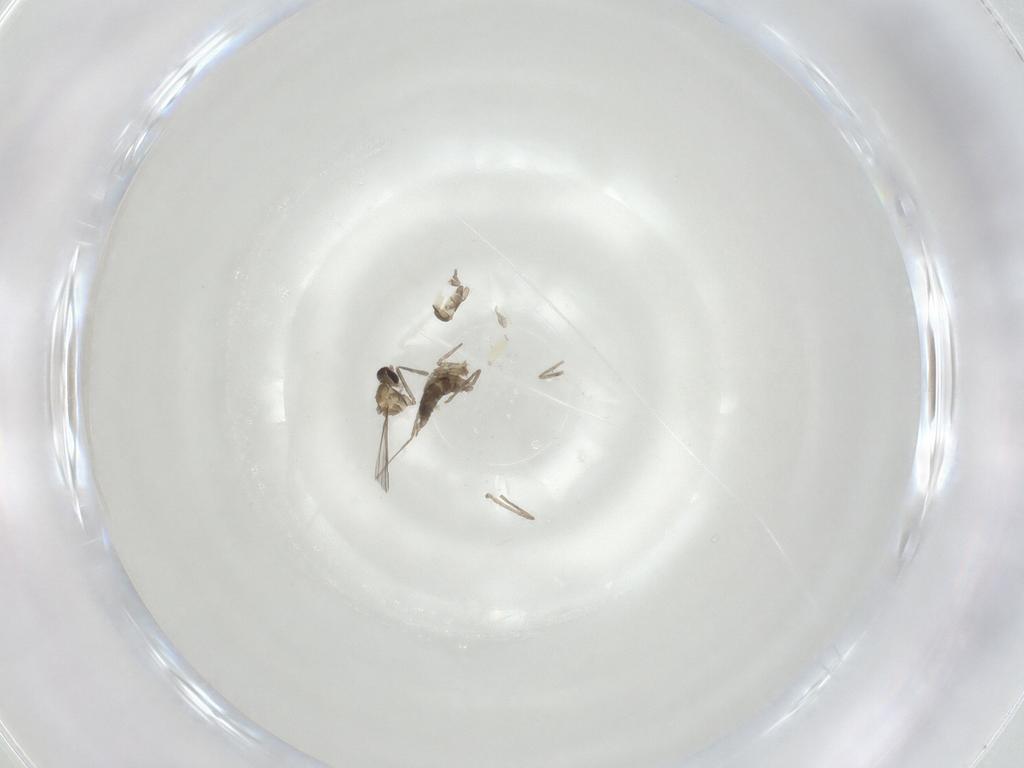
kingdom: Animalia
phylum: Arthropoda
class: Insecta
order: Diptera
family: Cecidomyiidae
